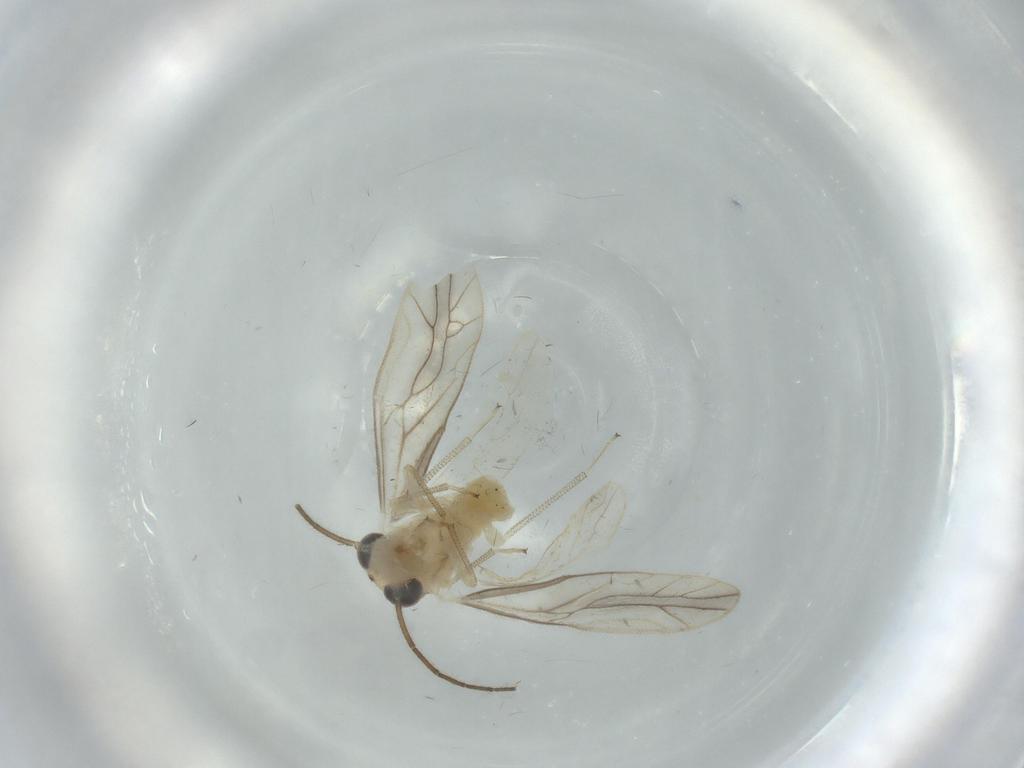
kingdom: Animalia
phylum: Arthropoda
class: Insecta
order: Psocodea
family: Caeciliusidae
